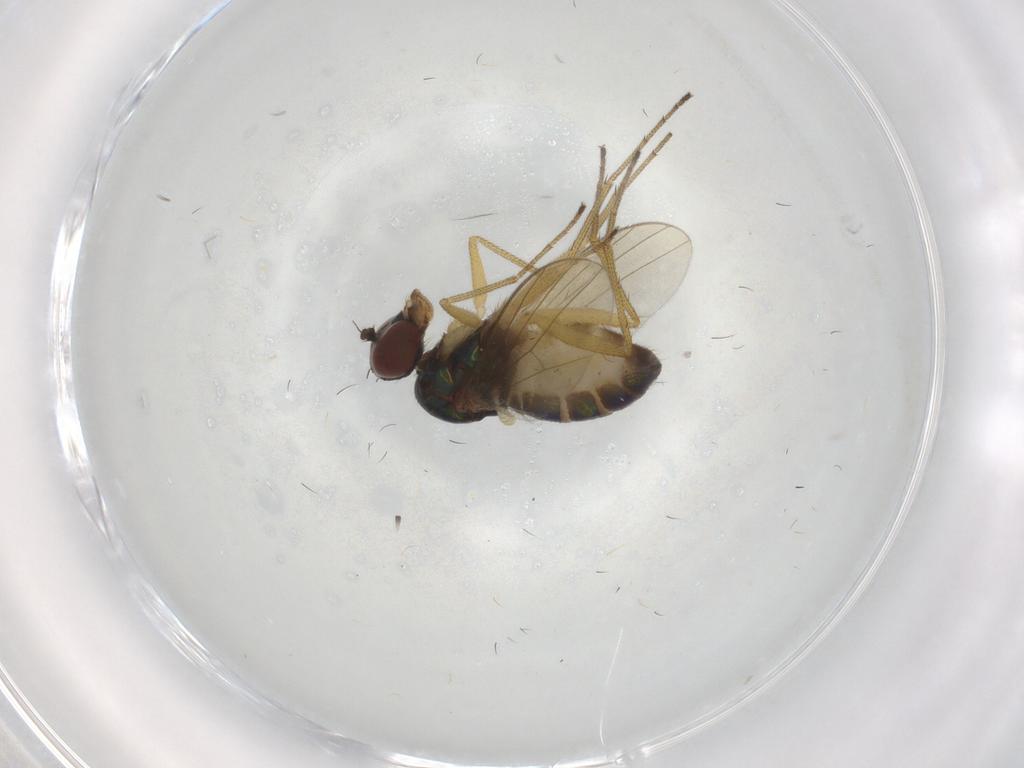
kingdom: Animalia
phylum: Arthropoda
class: Insecta
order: Diptera
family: Dolichopodidae
